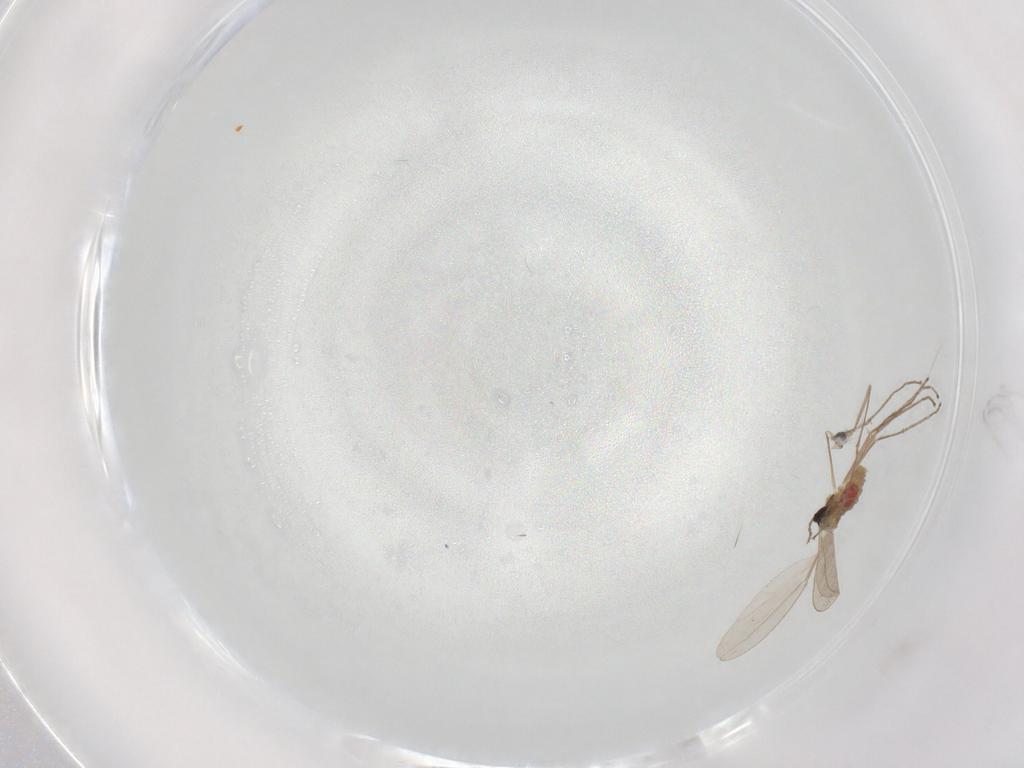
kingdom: Animalia
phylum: Arthropoda
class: Insecta
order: Diptera
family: Cecidomyiidae
